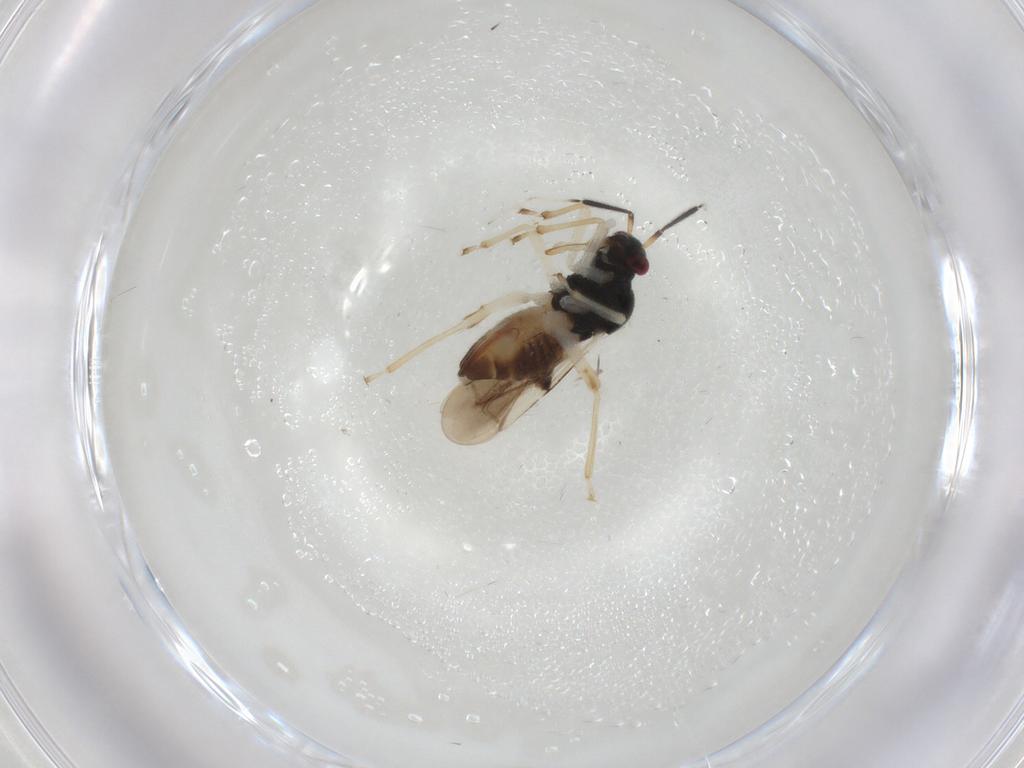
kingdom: Animalia
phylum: Arthropoda
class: Insecta
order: Hemiptera
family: Miridae
